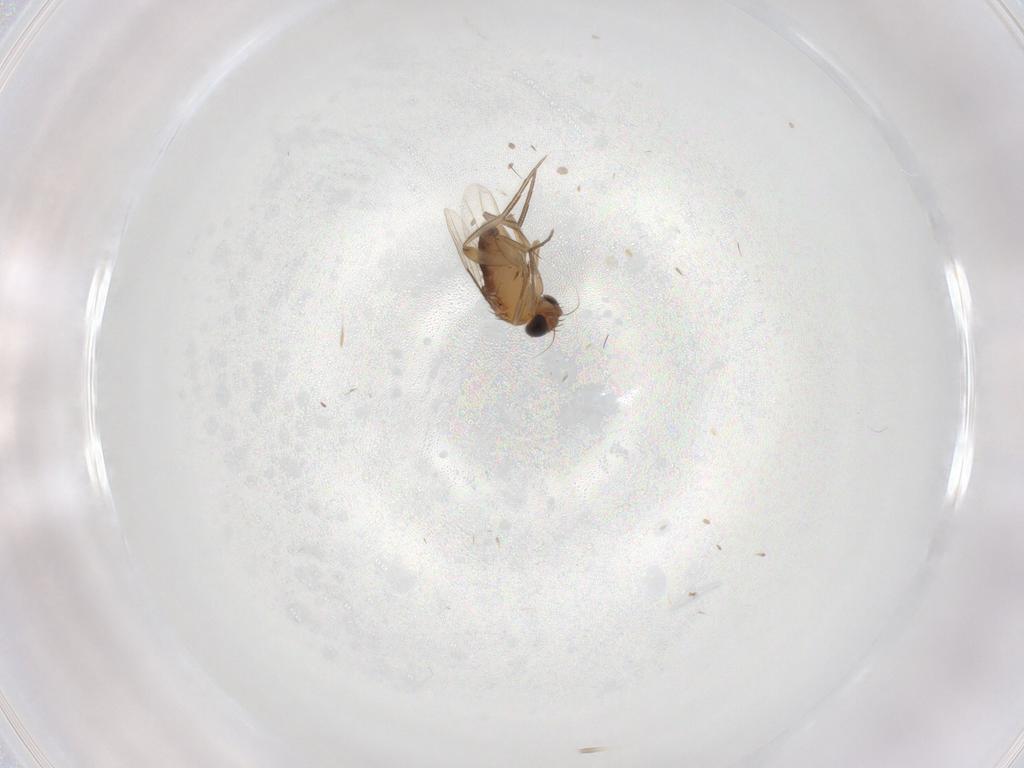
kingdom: Animalia
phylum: Arthropoda
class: Insecta
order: Diptera
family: Phoridae
